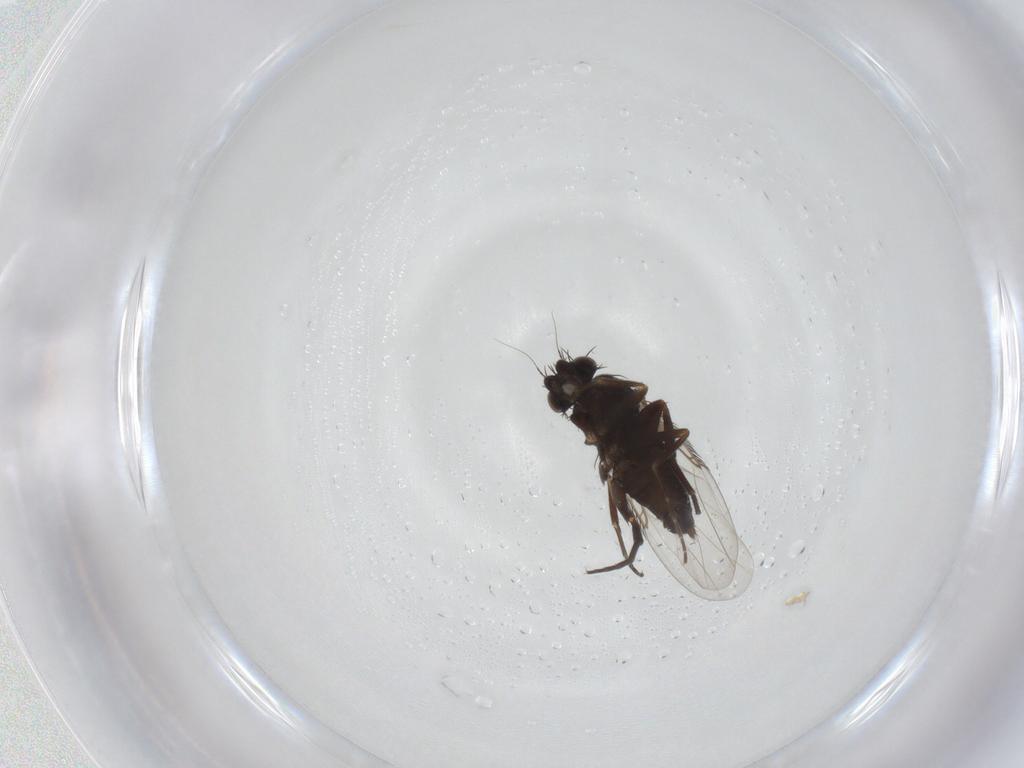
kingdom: Animalia
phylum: Arthropoda
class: Insecta
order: Diptera
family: Phoridae
